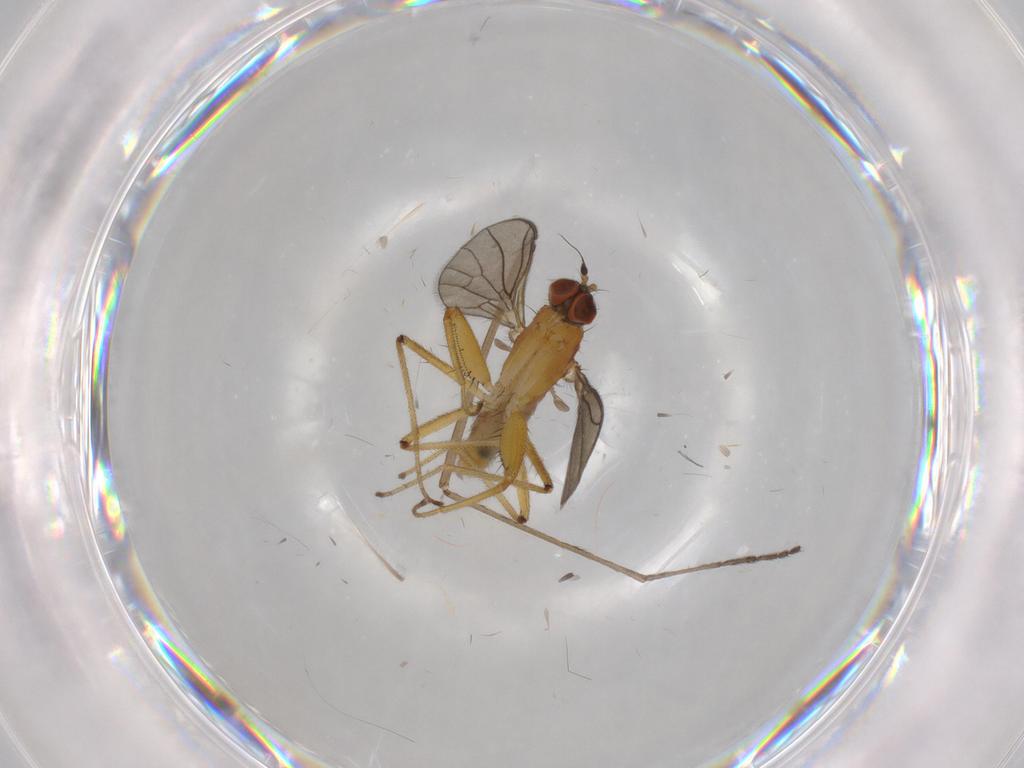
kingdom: Animalia
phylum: Arthropoda
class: Insecta
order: Diptera
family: Empididae
